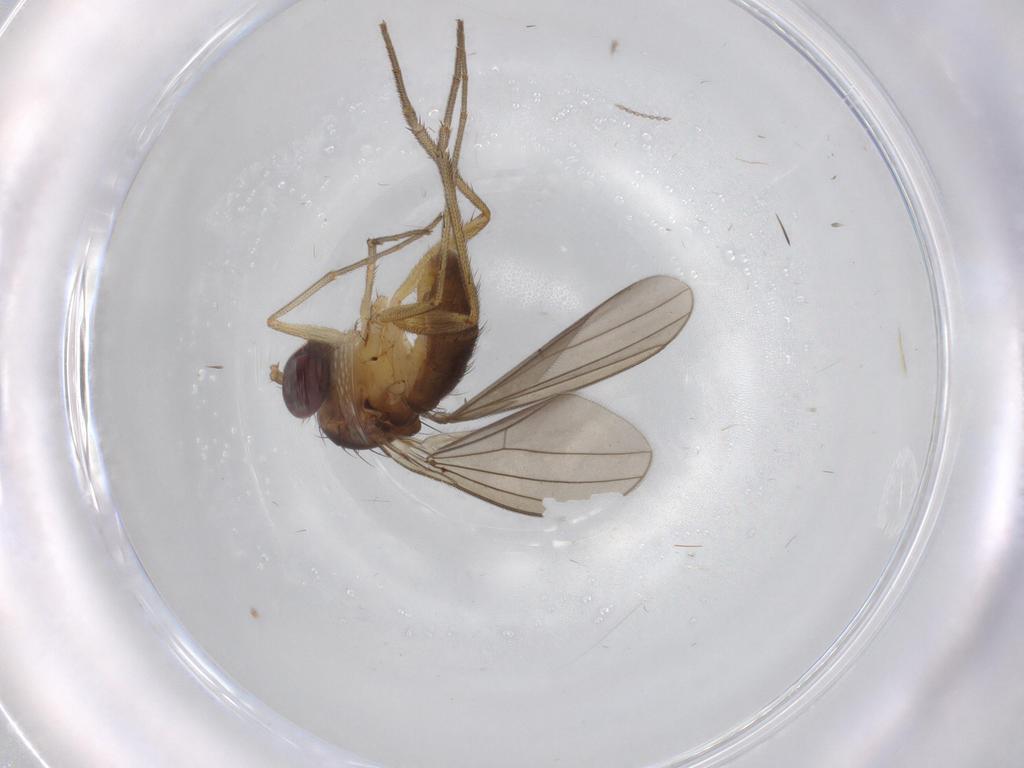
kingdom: Animalia
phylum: Arthropoda
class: Insecta
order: Diptera
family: Dolichopodidae
